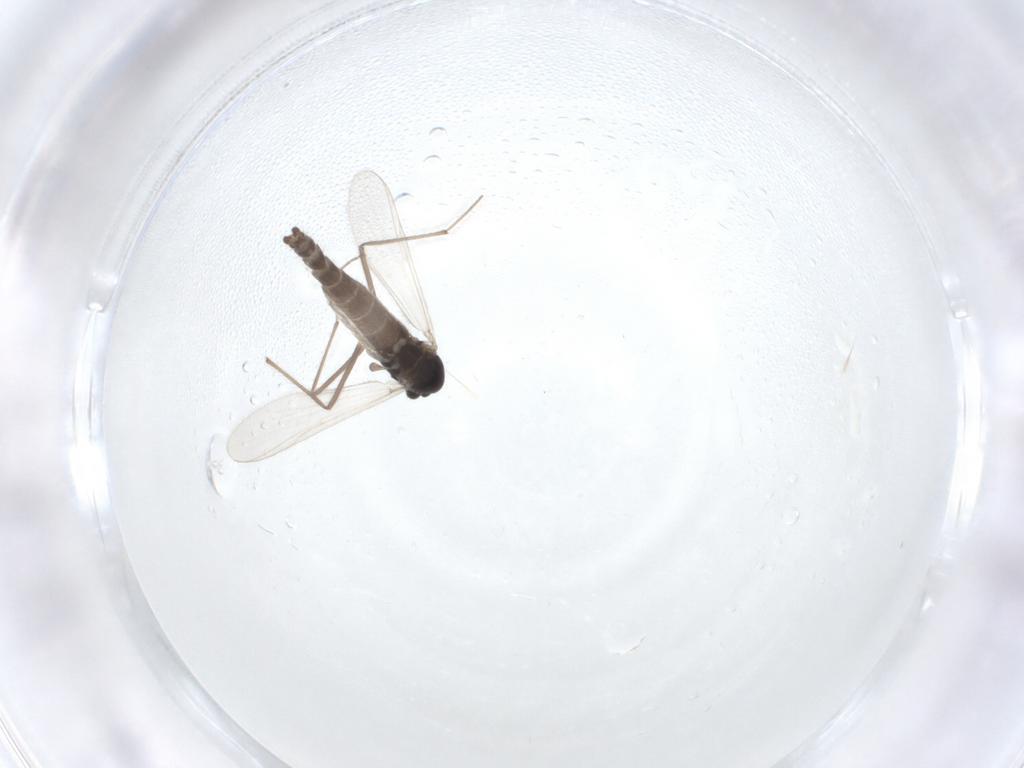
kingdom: Animalia
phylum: Arthropoda
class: Insecta
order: Diptera
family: Chironomidae
